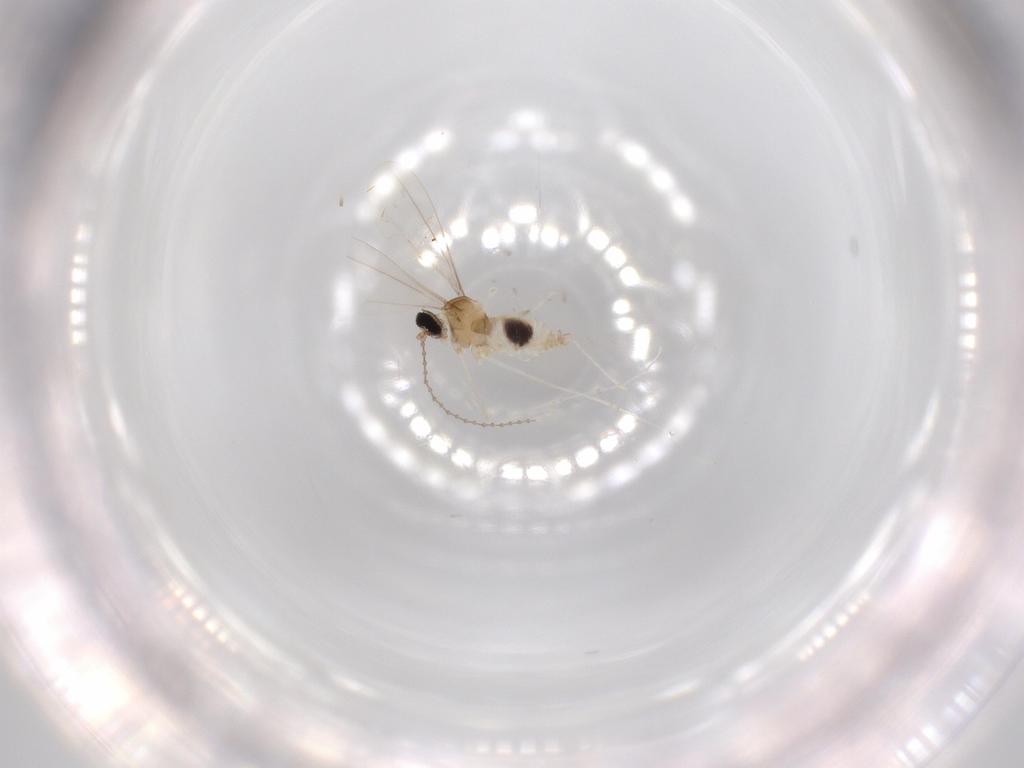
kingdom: Animalia
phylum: Arthropoda
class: Insecta
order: Diptera
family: Cecidomyiidae
